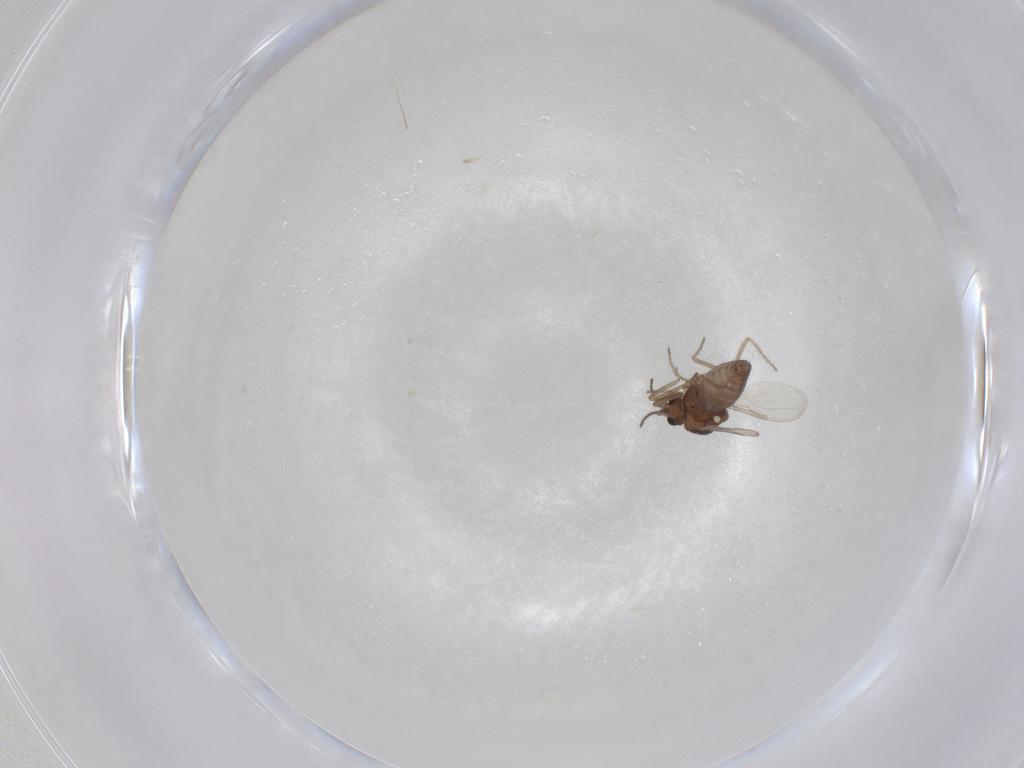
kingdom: Animalia
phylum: Arthropoda
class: Insecta
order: Diptera
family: Ceratopogonidae
